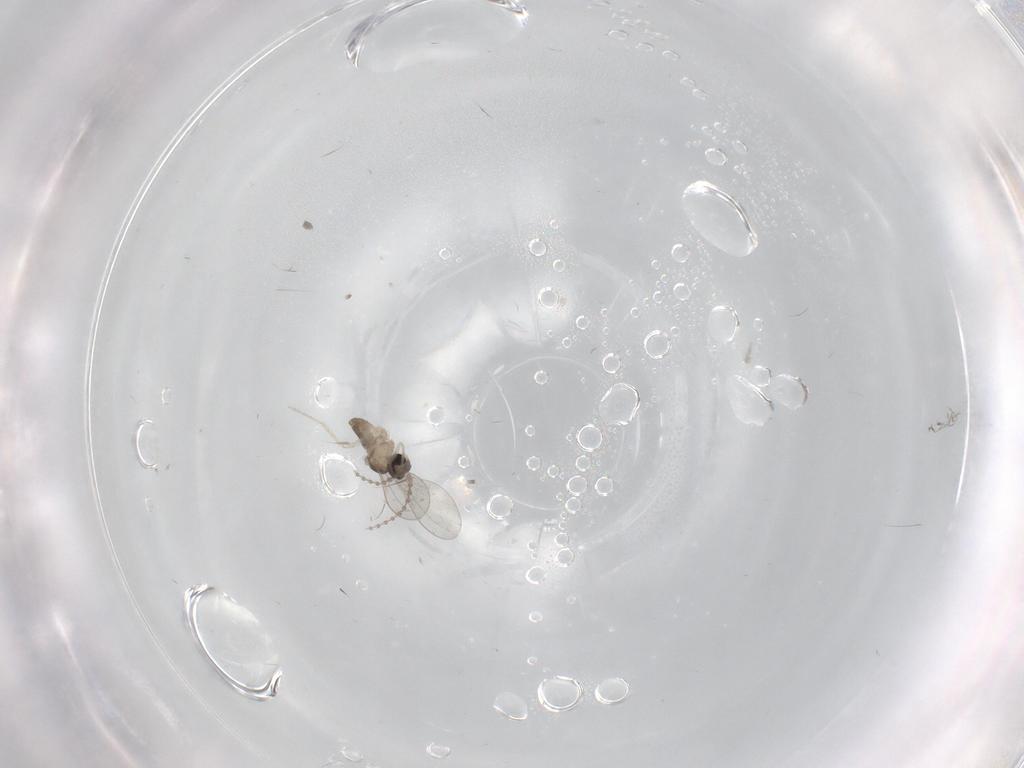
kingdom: Animalia
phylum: Arthropoda
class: Insecta
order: Diptera
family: Cecidomyiidae
